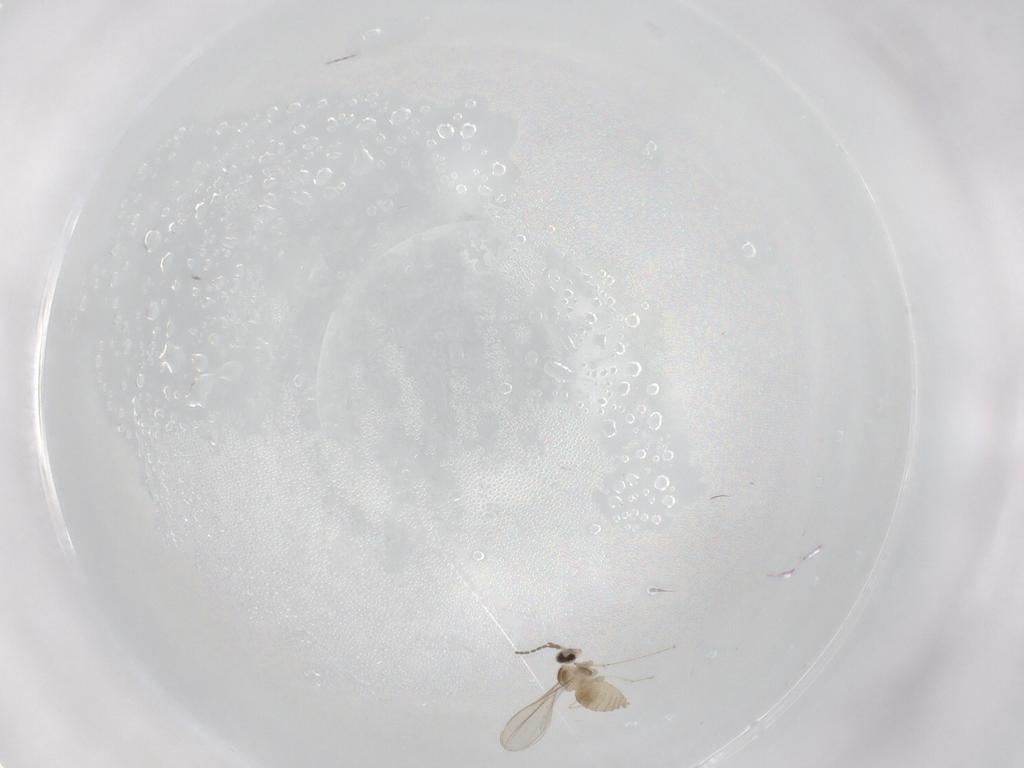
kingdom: Animalia
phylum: Arthropoda
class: Insecta
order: Diptera
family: Cecidomyiidae
